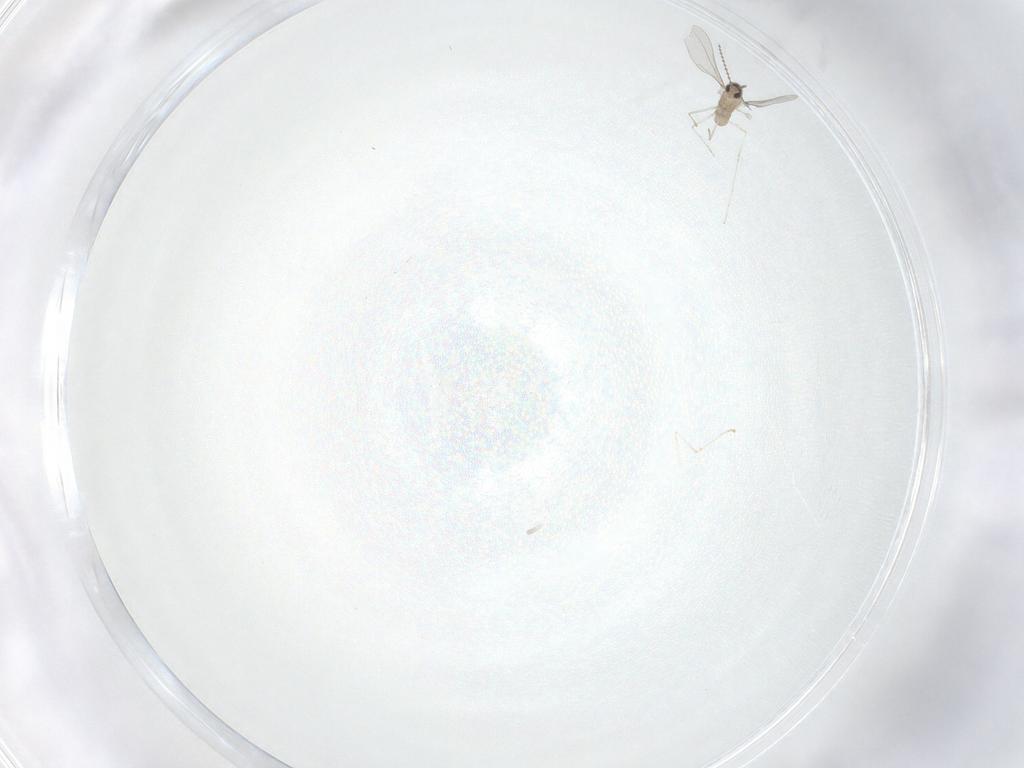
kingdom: Animalia
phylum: Arthropoda
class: Insecta
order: Diptera
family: Cecidomyiidae
